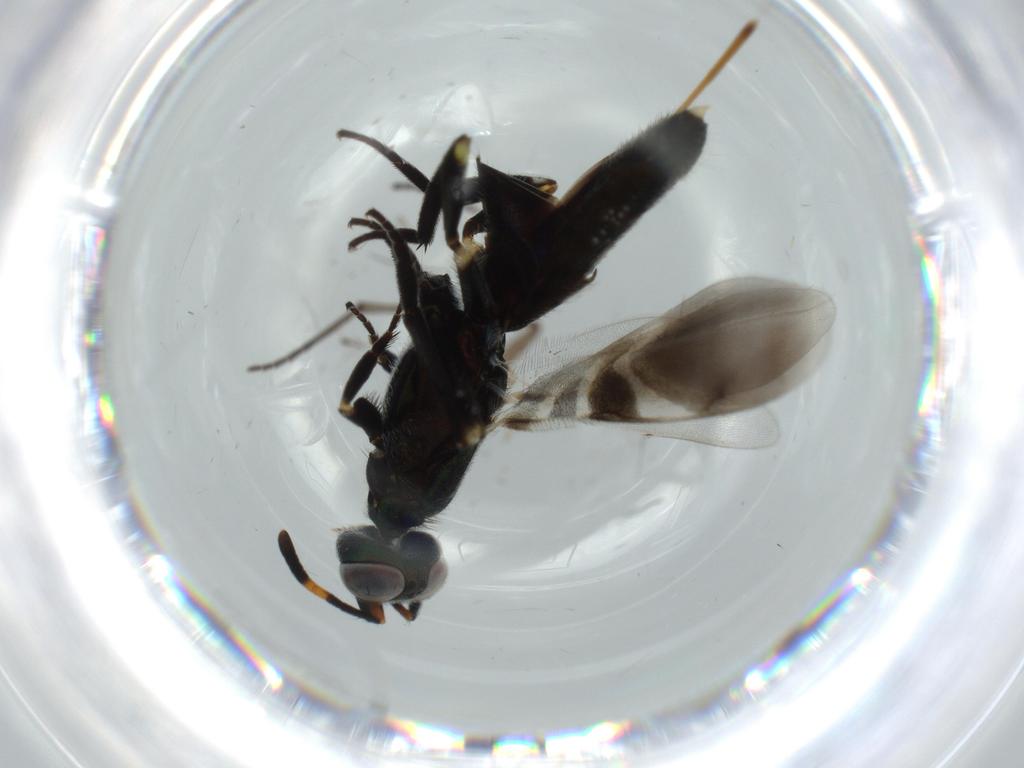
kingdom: Animalia
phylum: Arthropoda
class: Insecta
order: Hymenoptera
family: Eupelmidae
